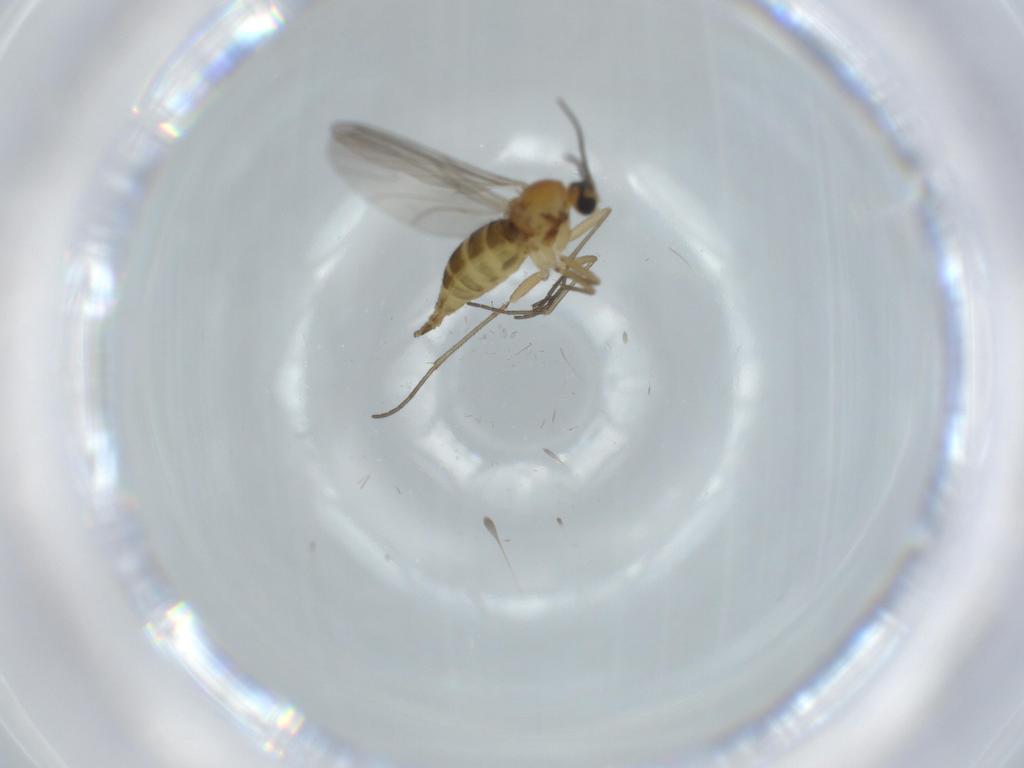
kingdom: Animalia
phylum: Arthropoda
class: Insecta
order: Diptera
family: Sciaridae
